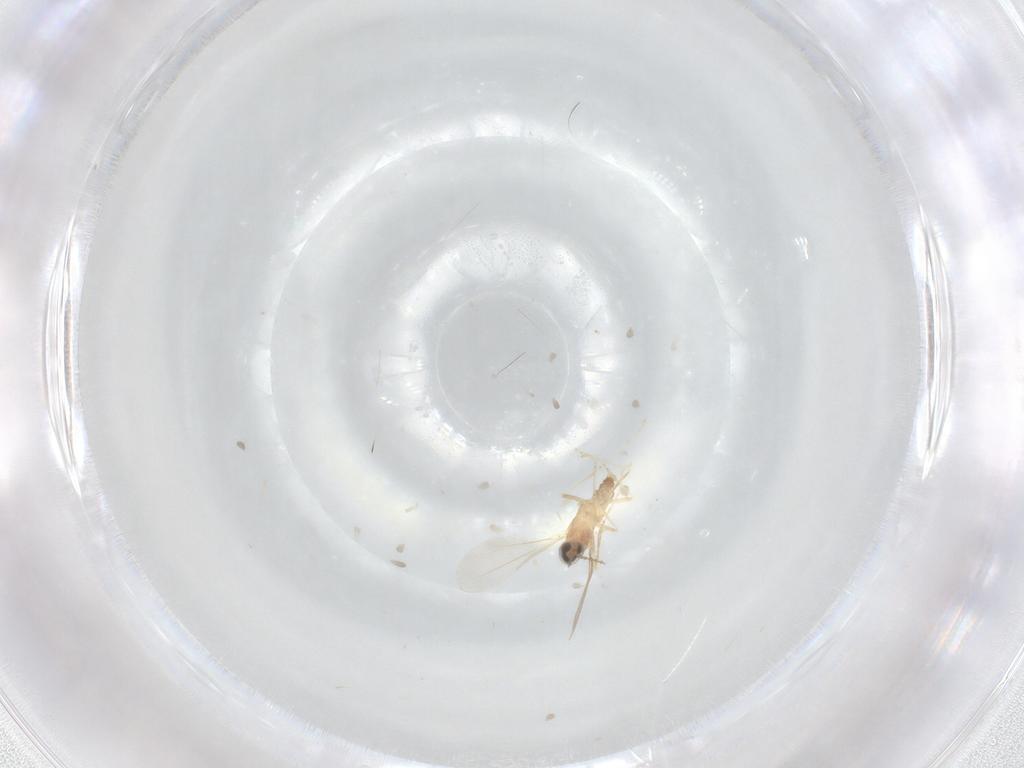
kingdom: Animalia
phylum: Arthropoda
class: Insecta
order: Diptera
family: Cecidomyiidae
